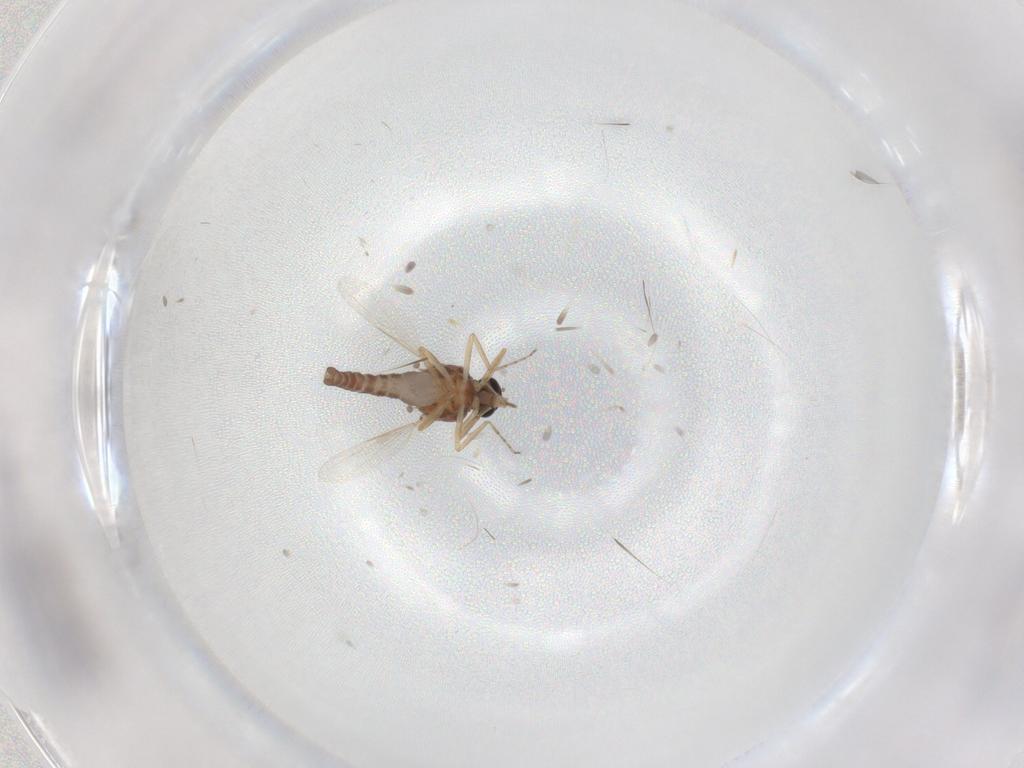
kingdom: Animalia
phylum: Arthropoda
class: Insecta
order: Diptera
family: Ceratopogonidae
